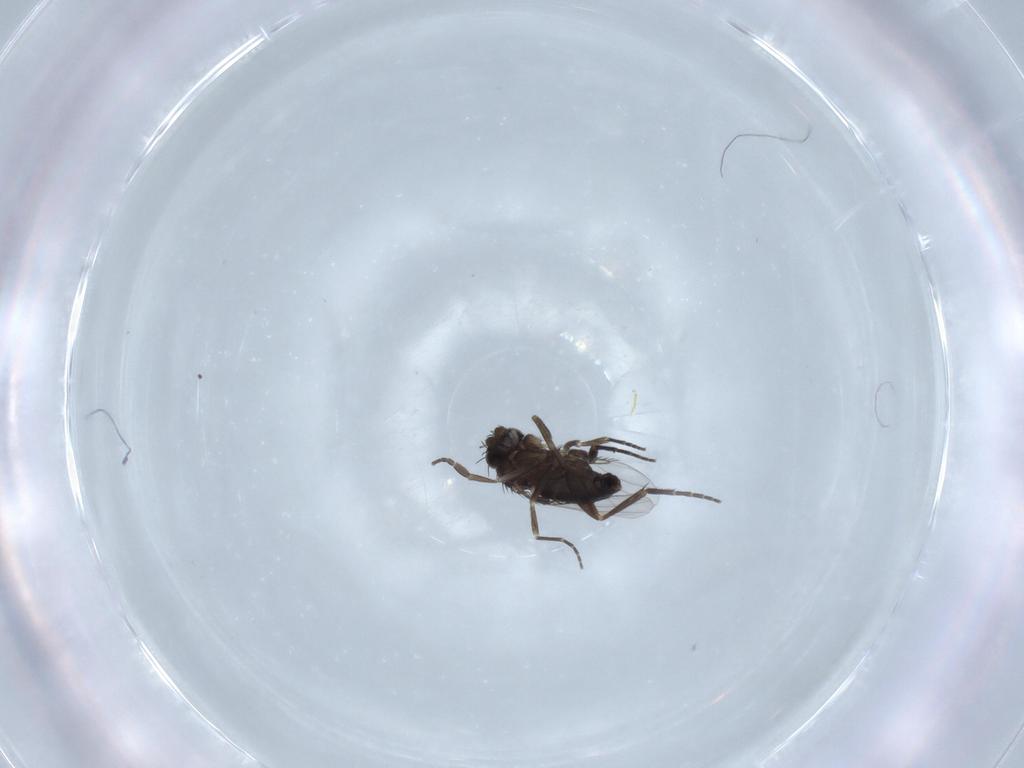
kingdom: Animalia
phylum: Arthropoda
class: Insecta
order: Diptera
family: Phoridae
